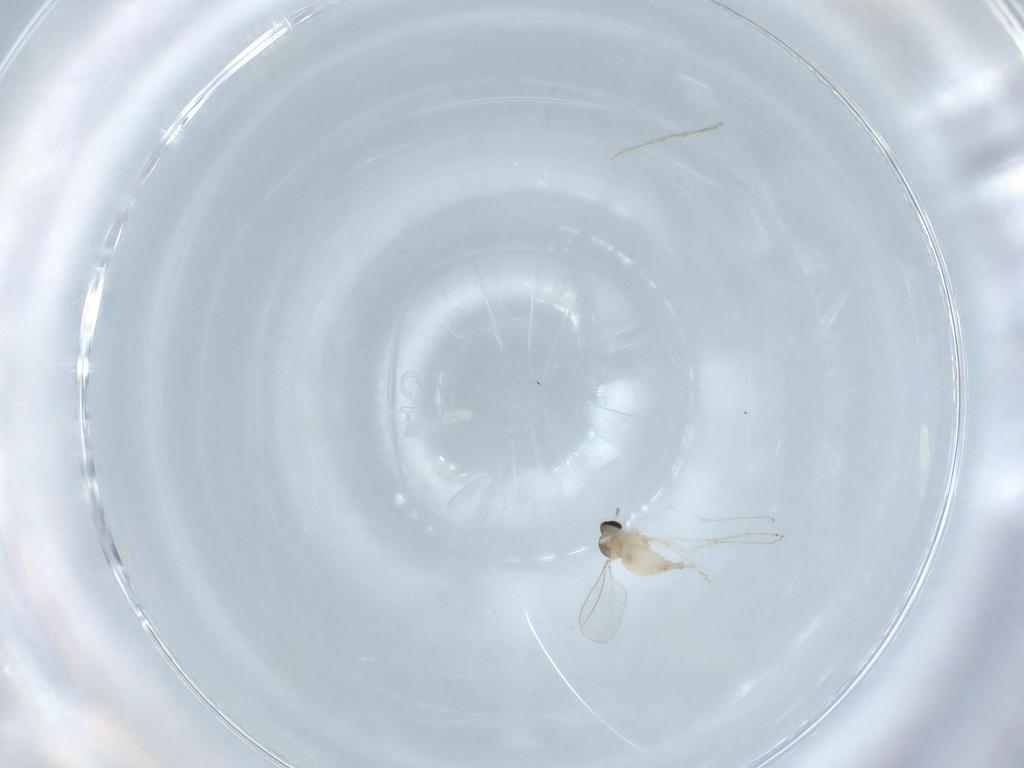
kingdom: Animalia
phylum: Arthropoda
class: Insecta
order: Diptera
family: Cecidomyiidae
